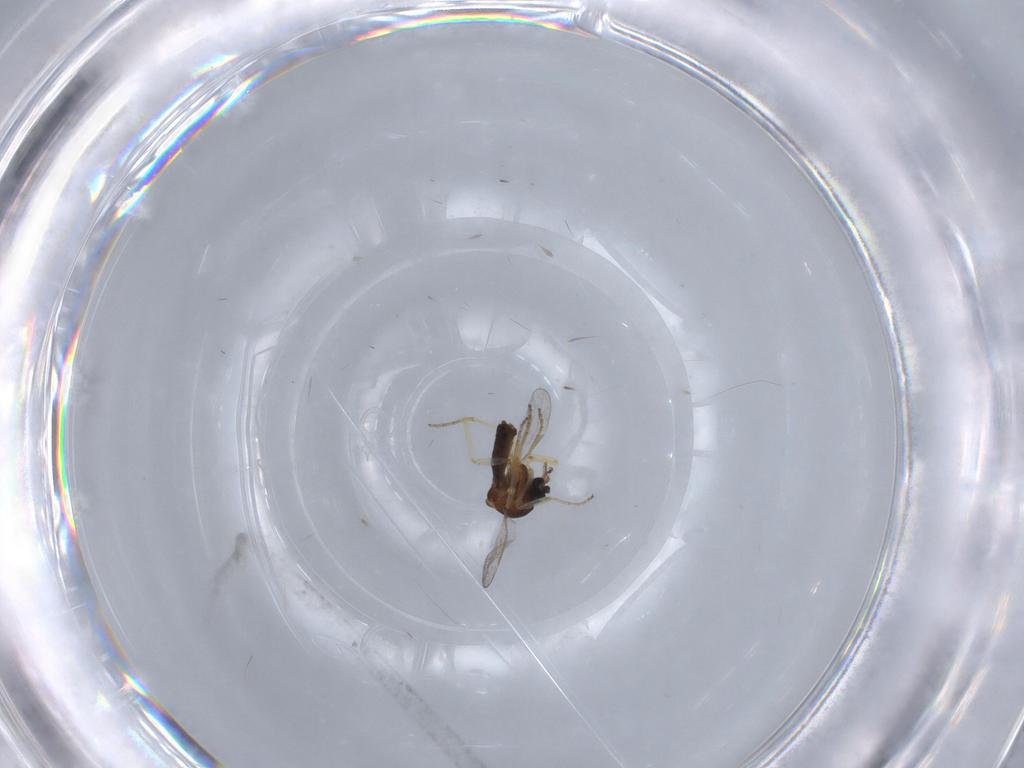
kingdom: Animalia
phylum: Arthropoda
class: Insecta
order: Diptera
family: Ceratopogonidae
